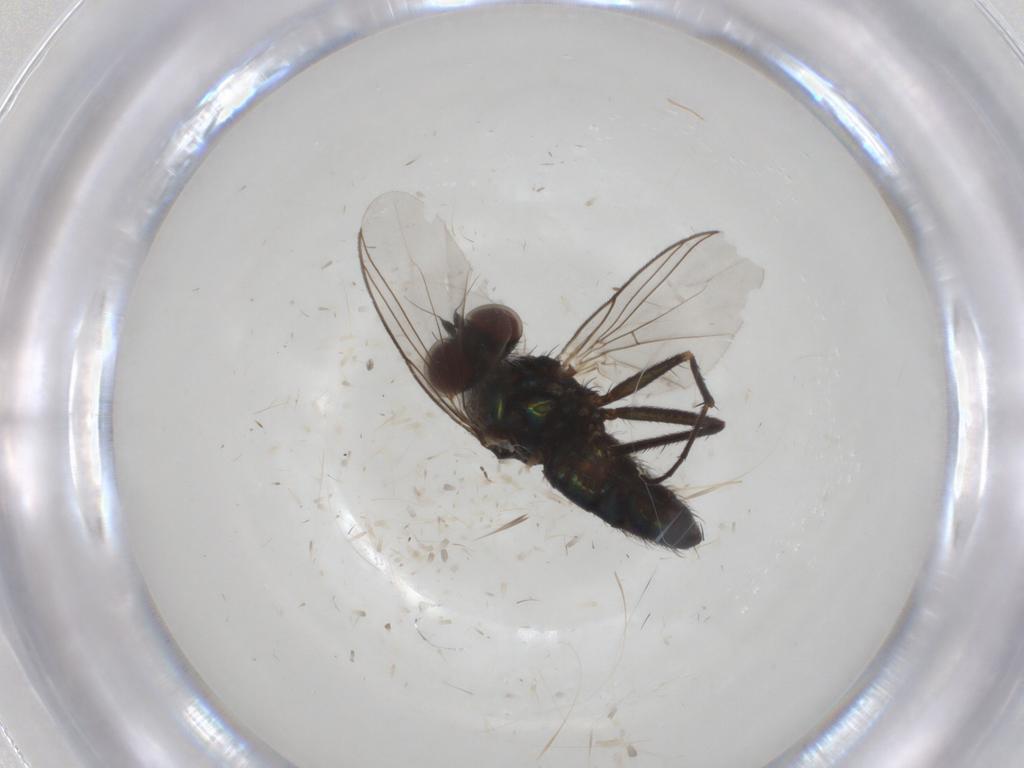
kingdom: Animalia
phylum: Arthropoda
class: Insecta
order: Diptera
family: Dolichopodidae
